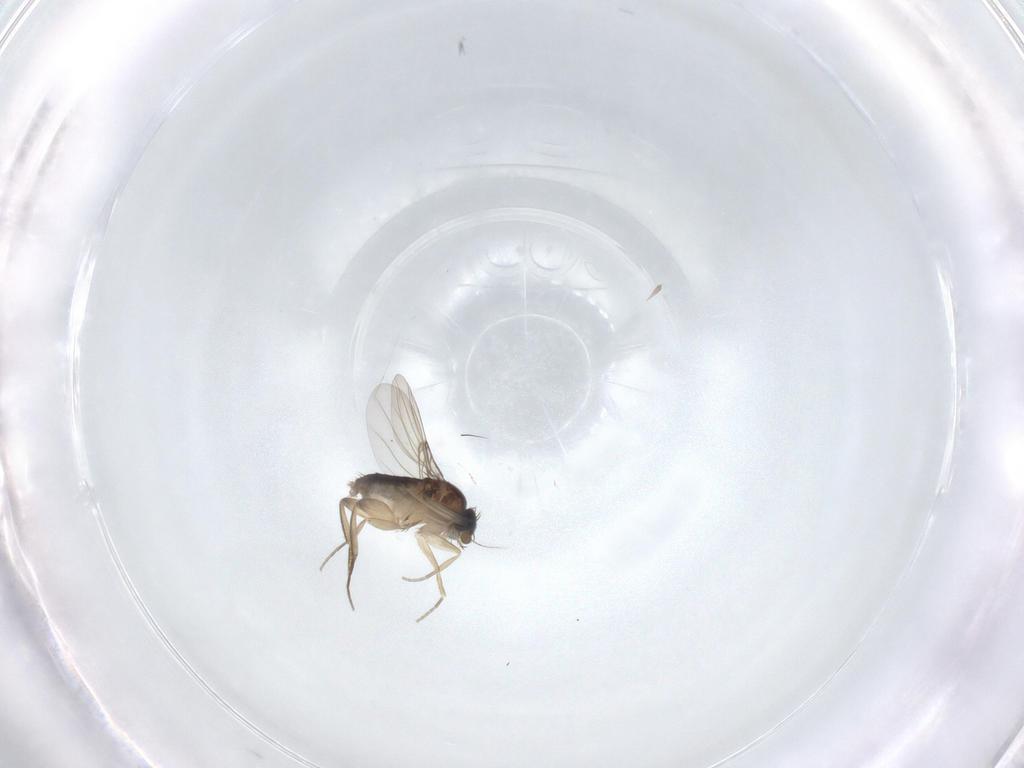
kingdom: Animalia
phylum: Arthropoda
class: Insecta
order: Diptera
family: Phoridae
